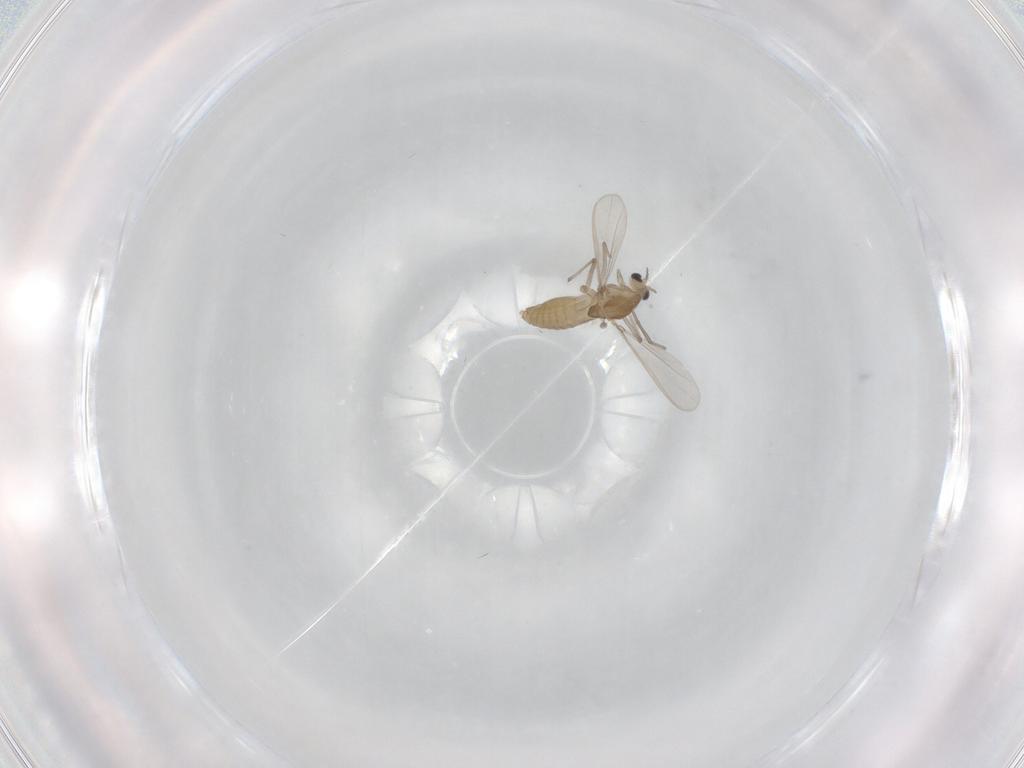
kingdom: Animalia
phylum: Arthropoda
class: Insecta
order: Diptera
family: Chironomidae
